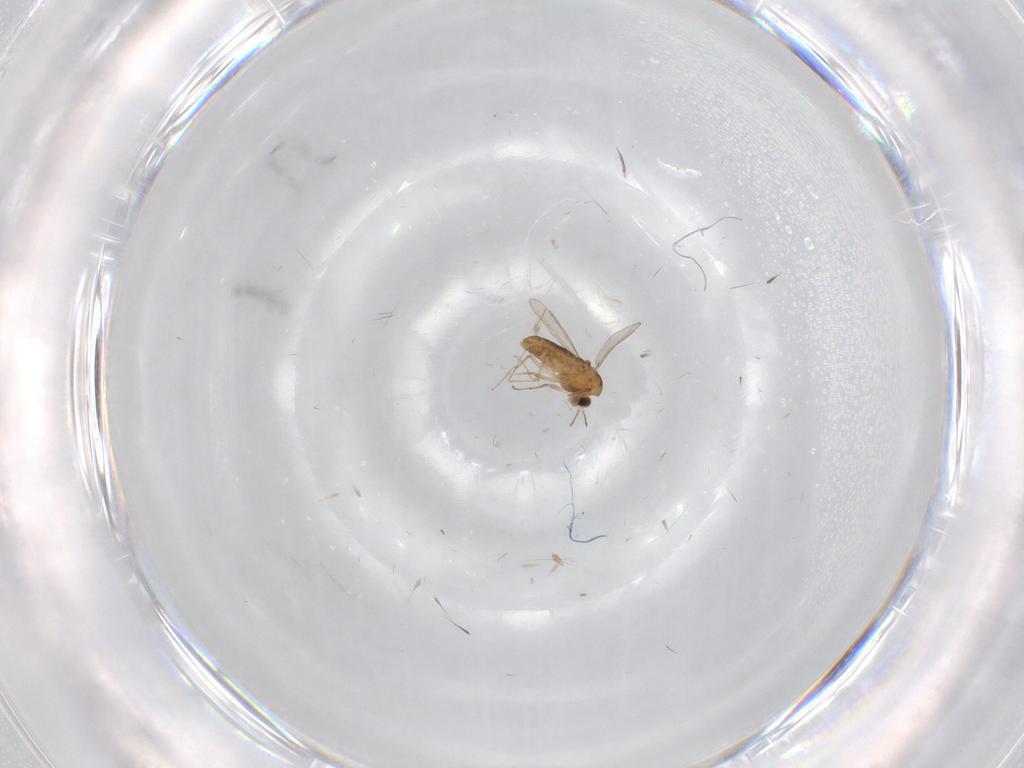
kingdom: Animalia
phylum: Arthropoda
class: Insecta
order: Diptera
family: Chironomidae
